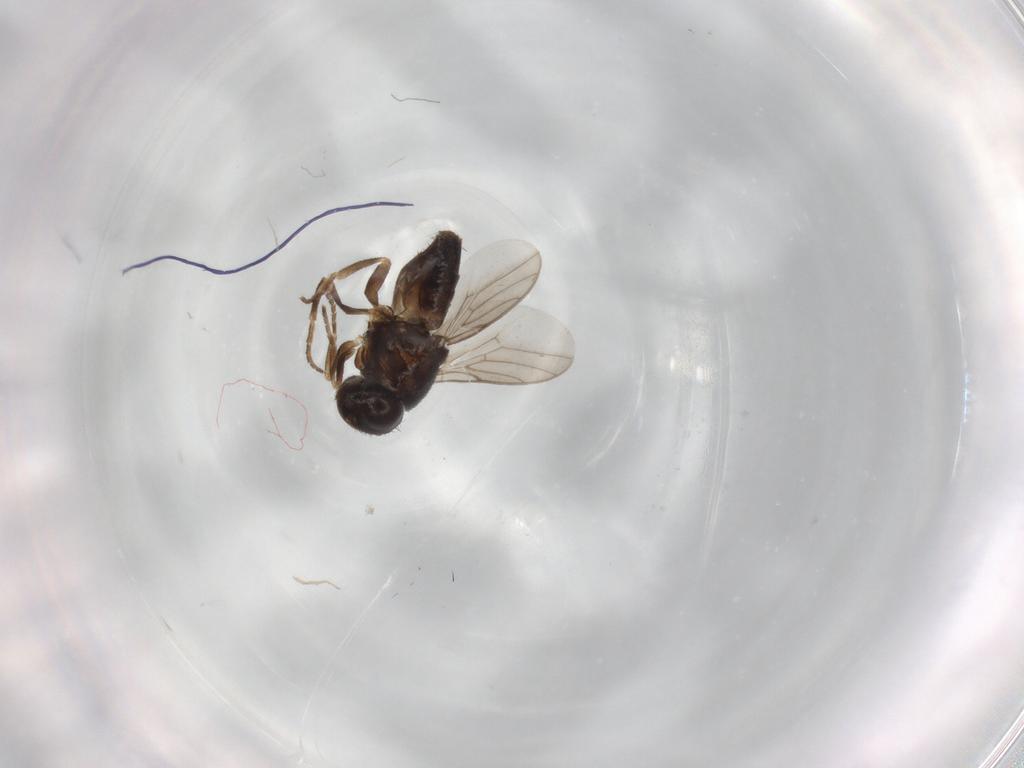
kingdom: Animalia
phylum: Arthropoda
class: Insecta
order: Diptera
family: Chloropidae
